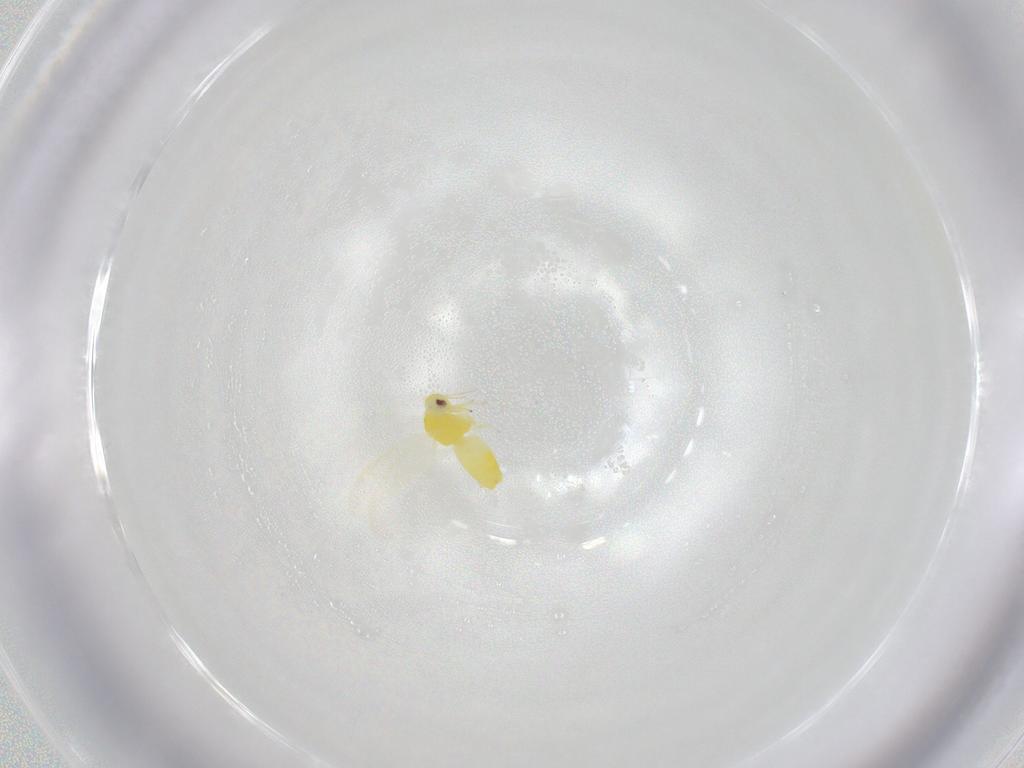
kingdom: Animalia
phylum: Arthropoda
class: Insecta
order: Hemiptera
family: Aleyrodidae
